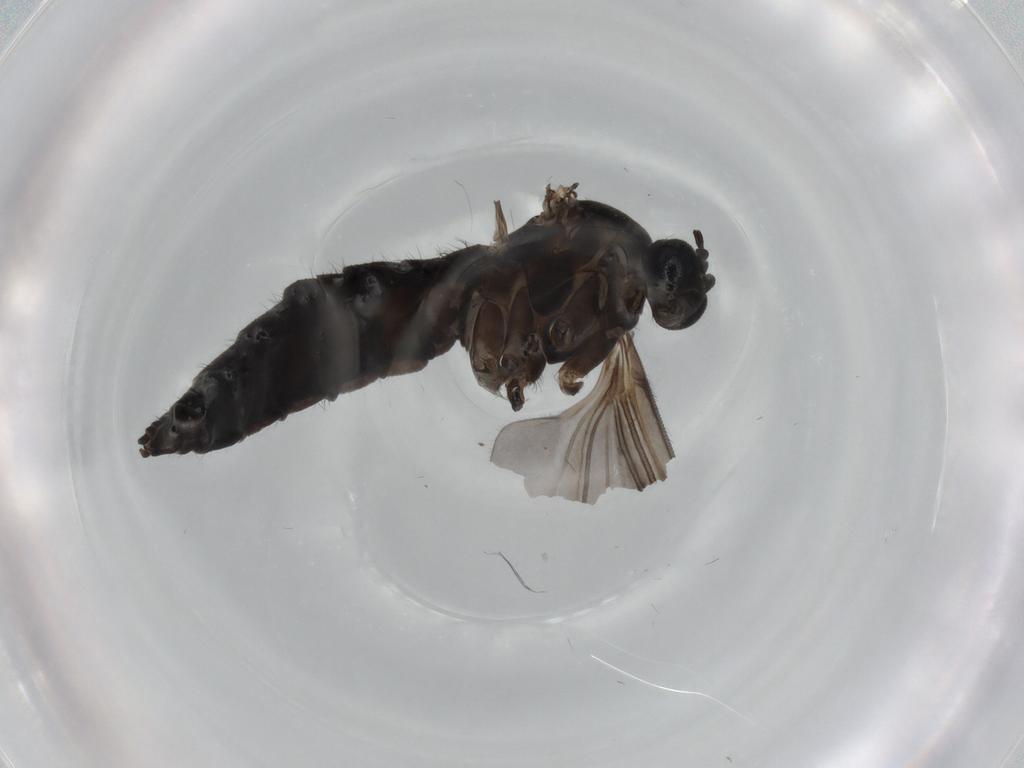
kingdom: Animalia
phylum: Arthropoda
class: Insecta
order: Diptera
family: Sciaridae
